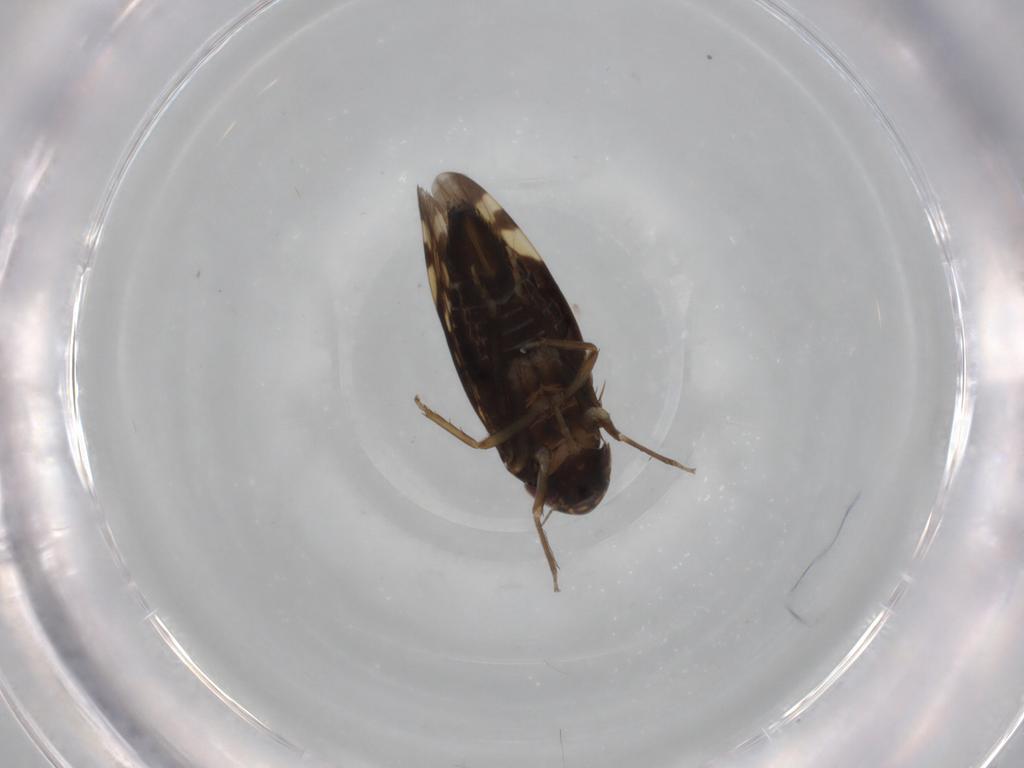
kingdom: Animalia
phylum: Arthropoda
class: Insecta
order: Hemiptera
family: Cicadellidae
